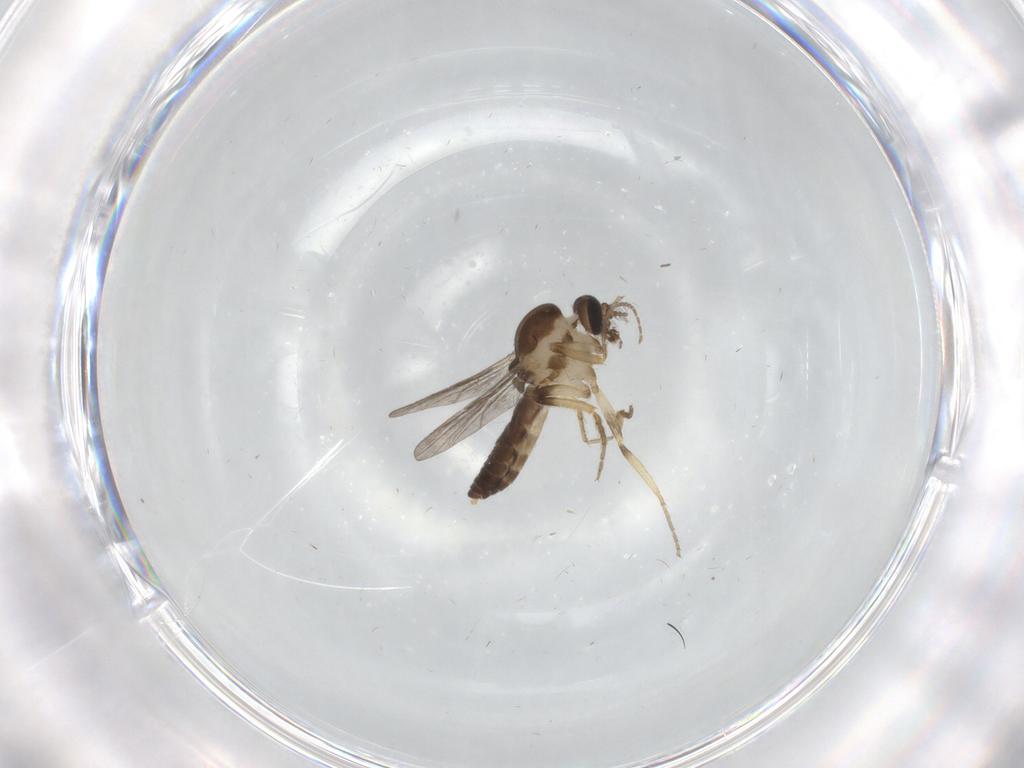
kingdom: Animalia
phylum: Arthropoda
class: Insecta
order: Diptera
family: Ceratopogonidae
